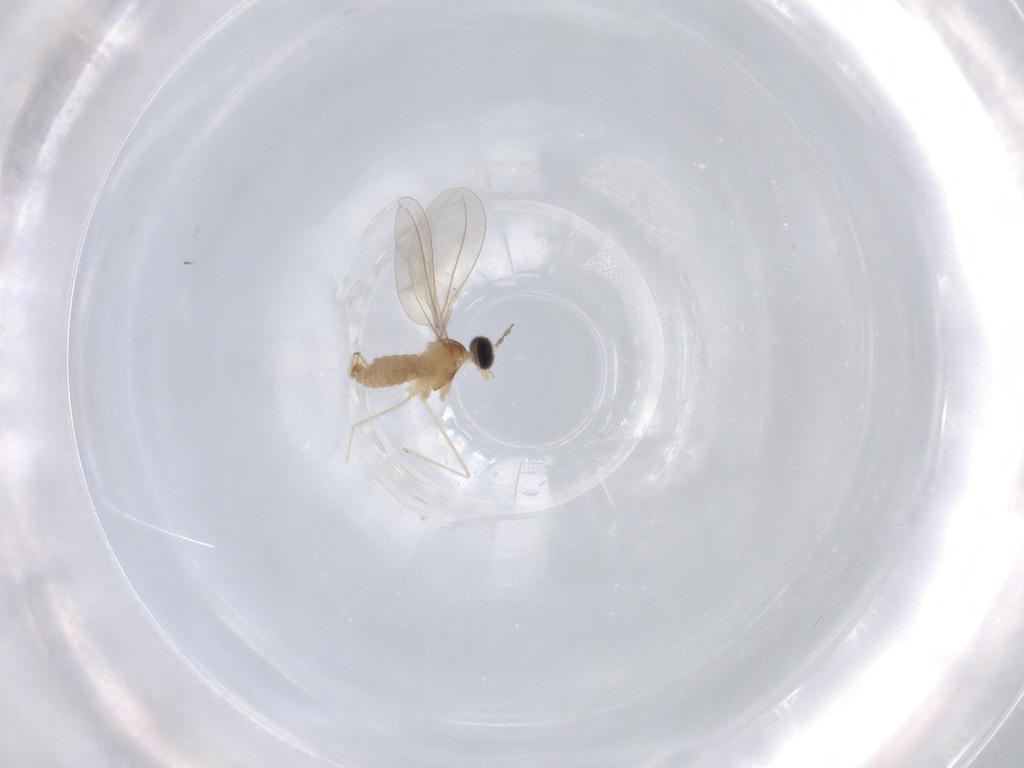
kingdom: Animalia
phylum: Arthropoda
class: Insecta
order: Diptera
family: Cecidomyiidae
